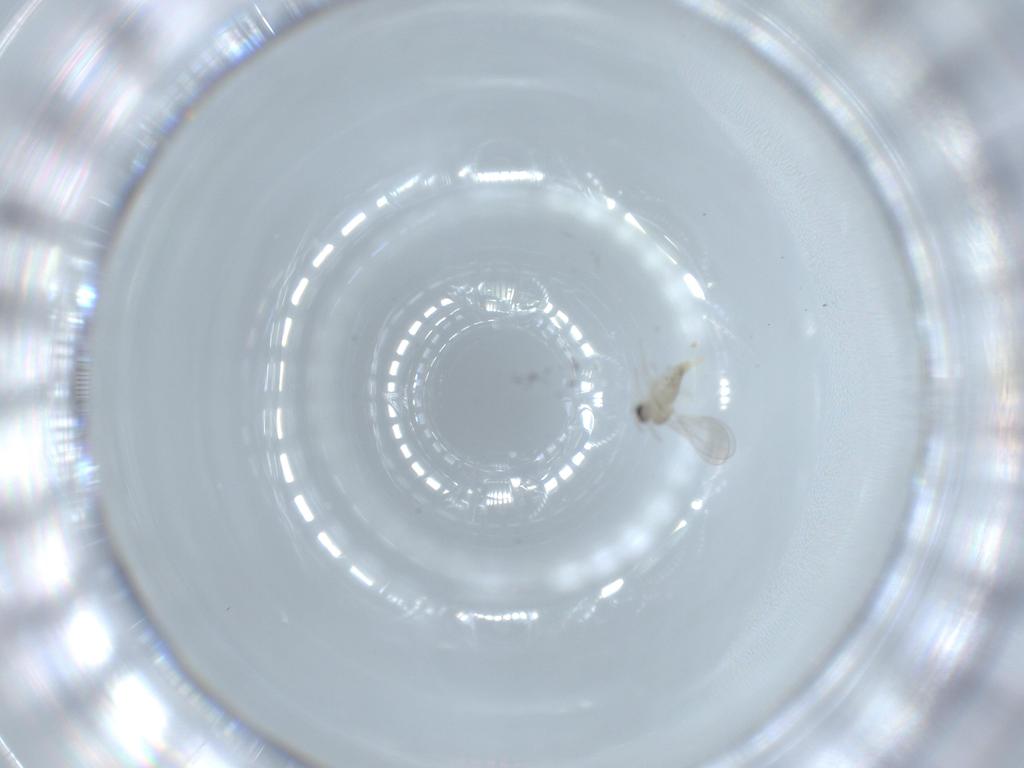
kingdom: Animalia
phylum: Arthropoda
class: Insecta
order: Diptera
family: Cecidomyiidae
